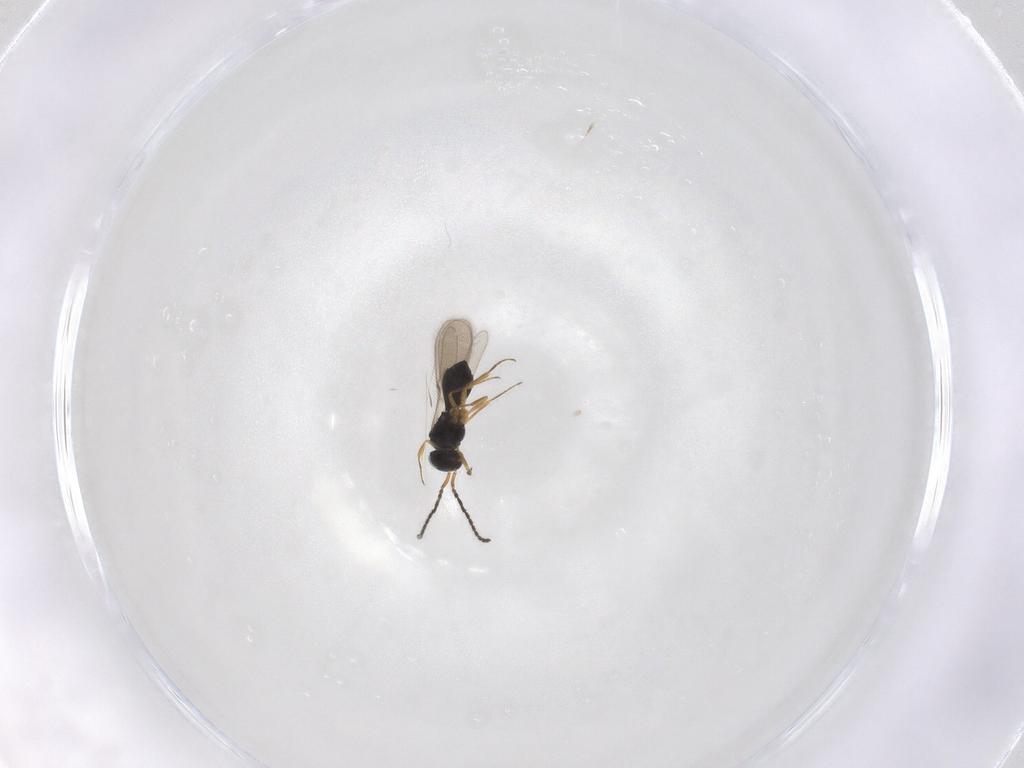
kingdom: Animalia
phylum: Arthropoda
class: Insecta
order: Hymenoptera
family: Scelionidae
